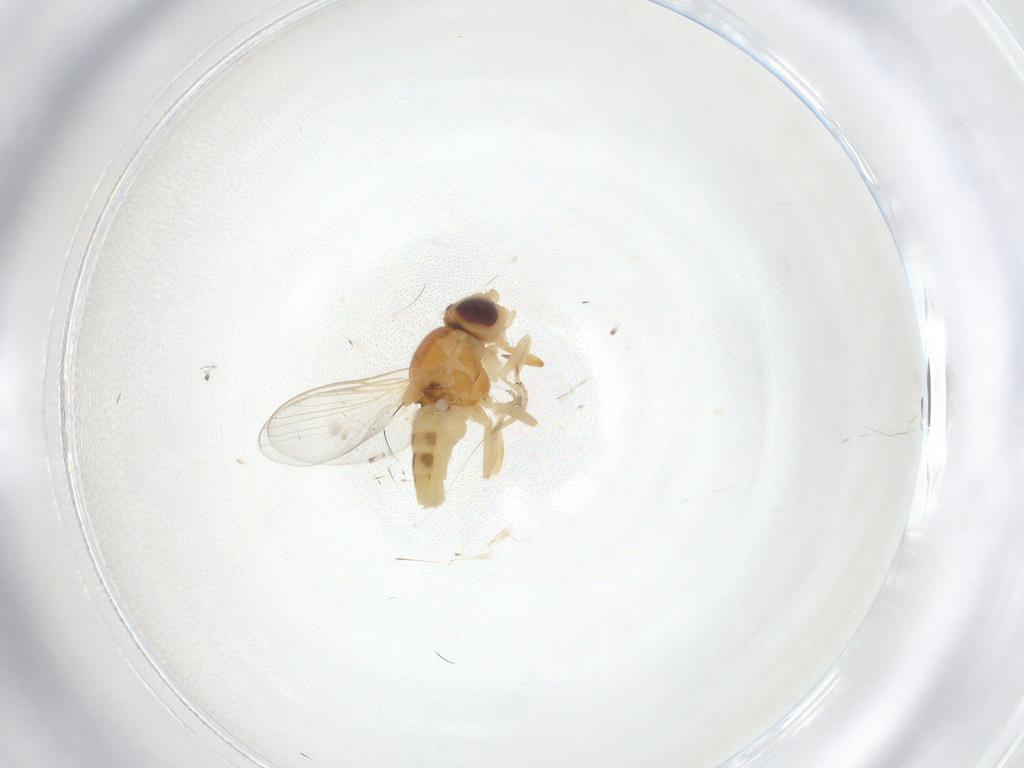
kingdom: Animalia
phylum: Arthropoda
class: Insecta
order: Diptera
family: Chloropidae
